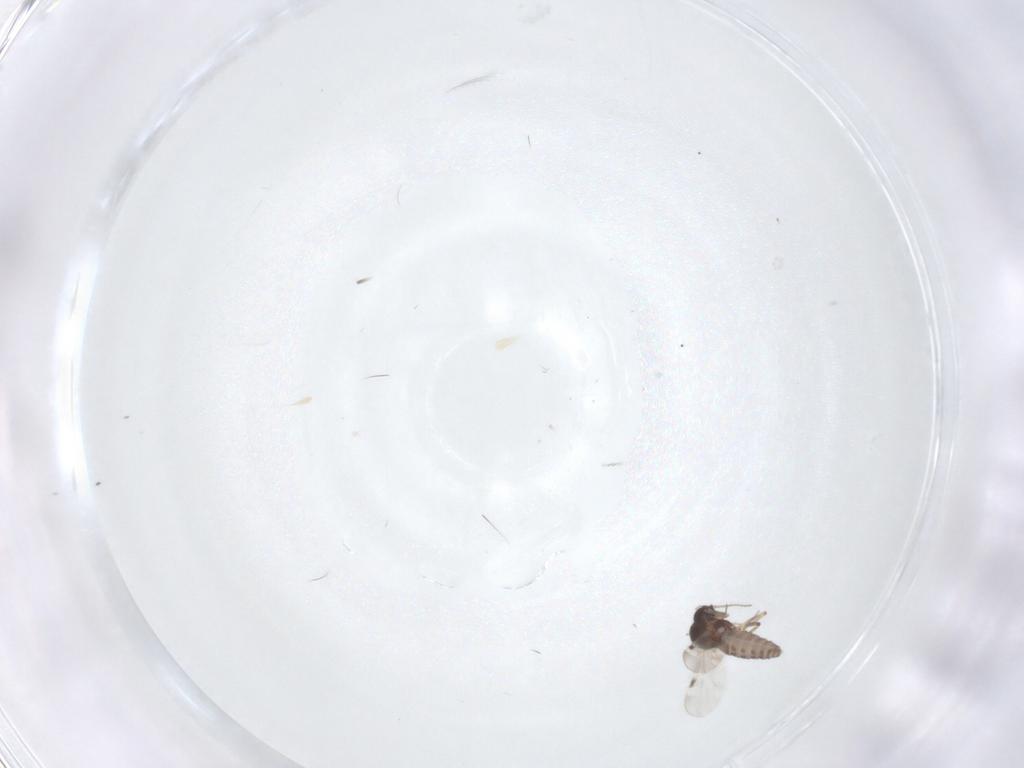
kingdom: Animalia
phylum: Arthropoda
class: Insecta
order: Diptera
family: Ceratopogonidae
